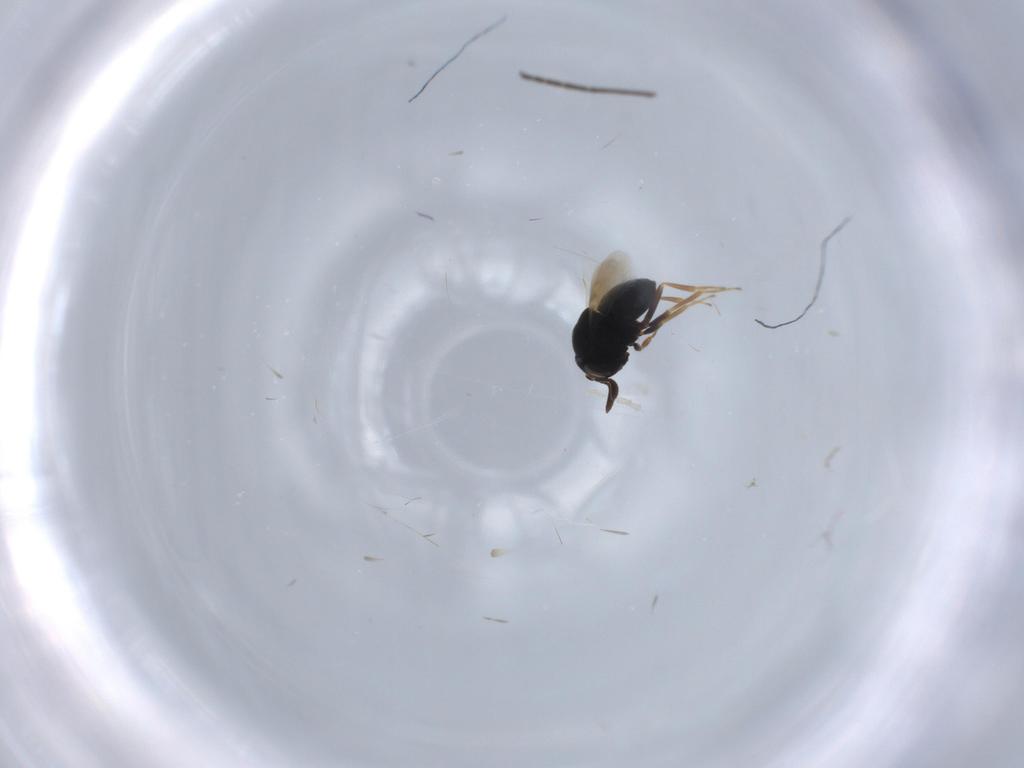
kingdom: Animalia
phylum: Arthropoda
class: Insecta
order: Hymenoptera
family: Scelionidae
